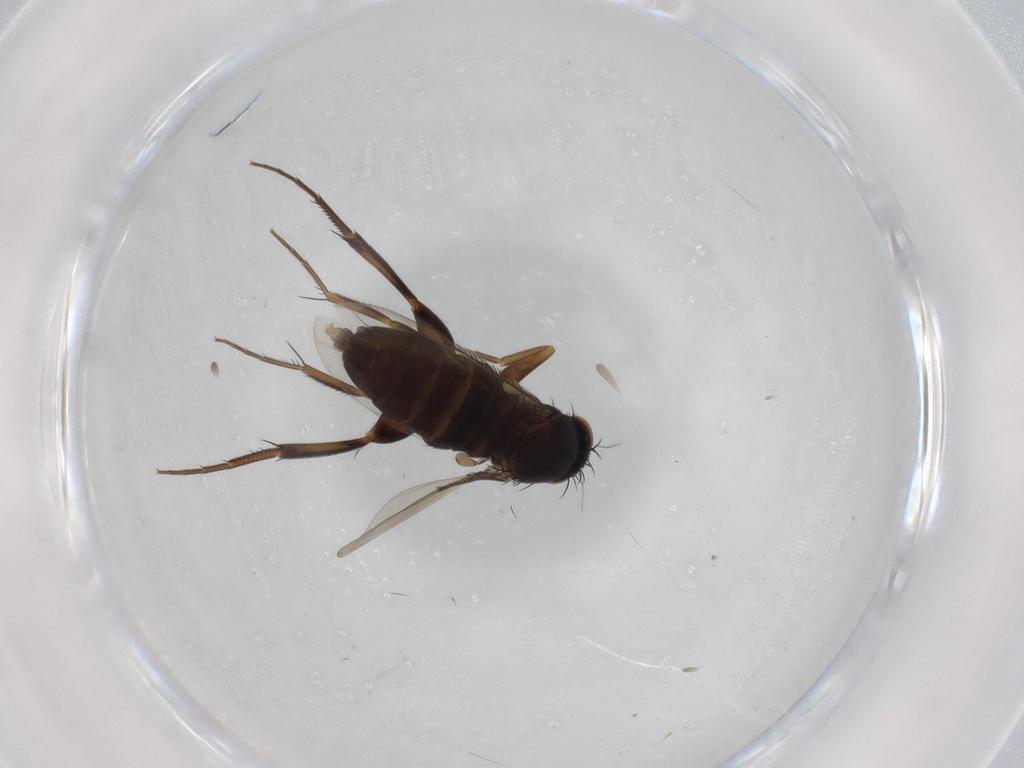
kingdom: Animalia
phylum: Arthropoda
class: Insecta
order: Diptera
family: Phoridae
